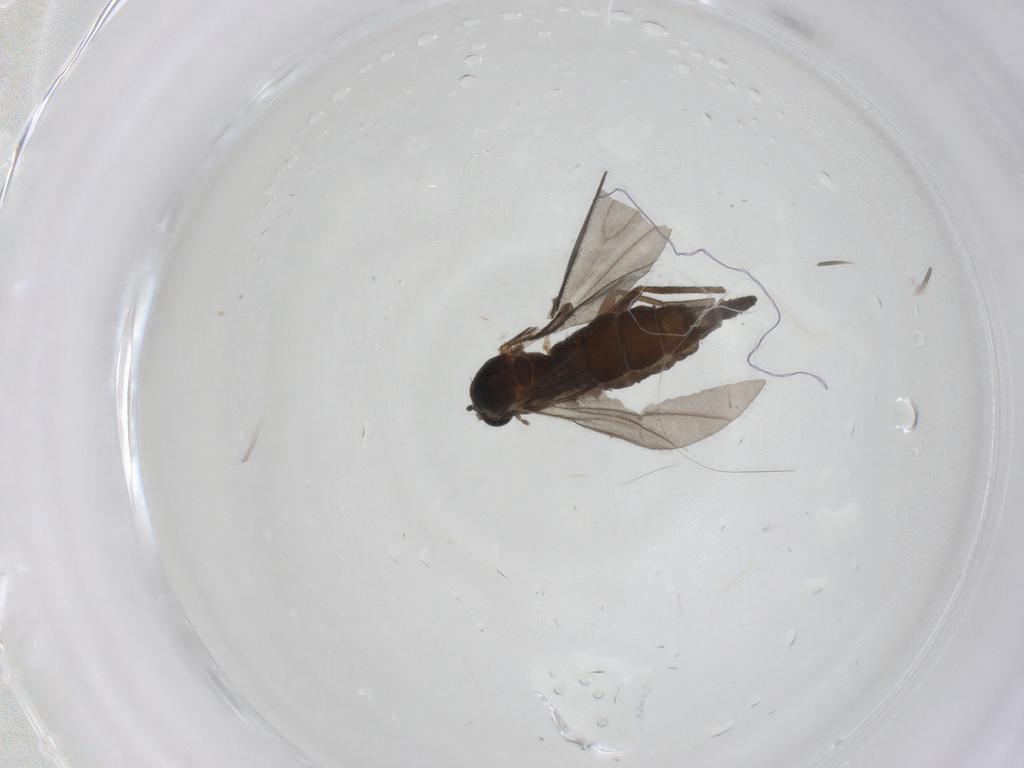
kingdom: Animalia
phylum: Arthropoda
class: Insecta
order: Diptera
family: Sciaridae
